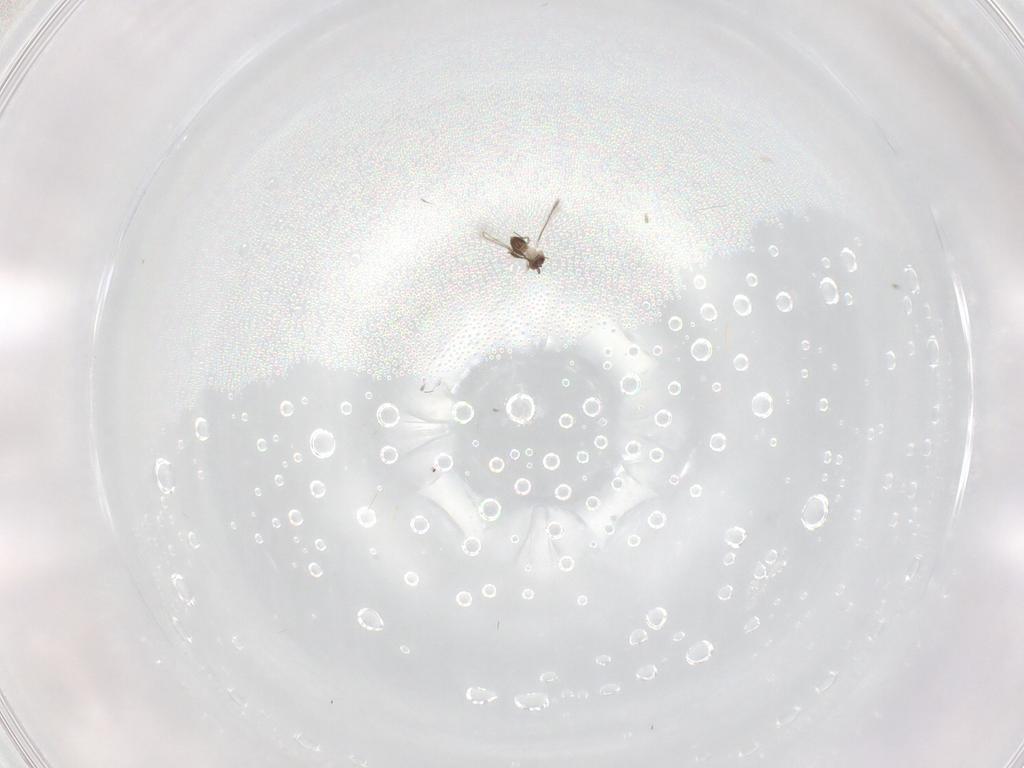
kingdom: Animalia
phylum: Arthropoda
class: Insecta
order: Hymenoptera
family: Mymaridae
